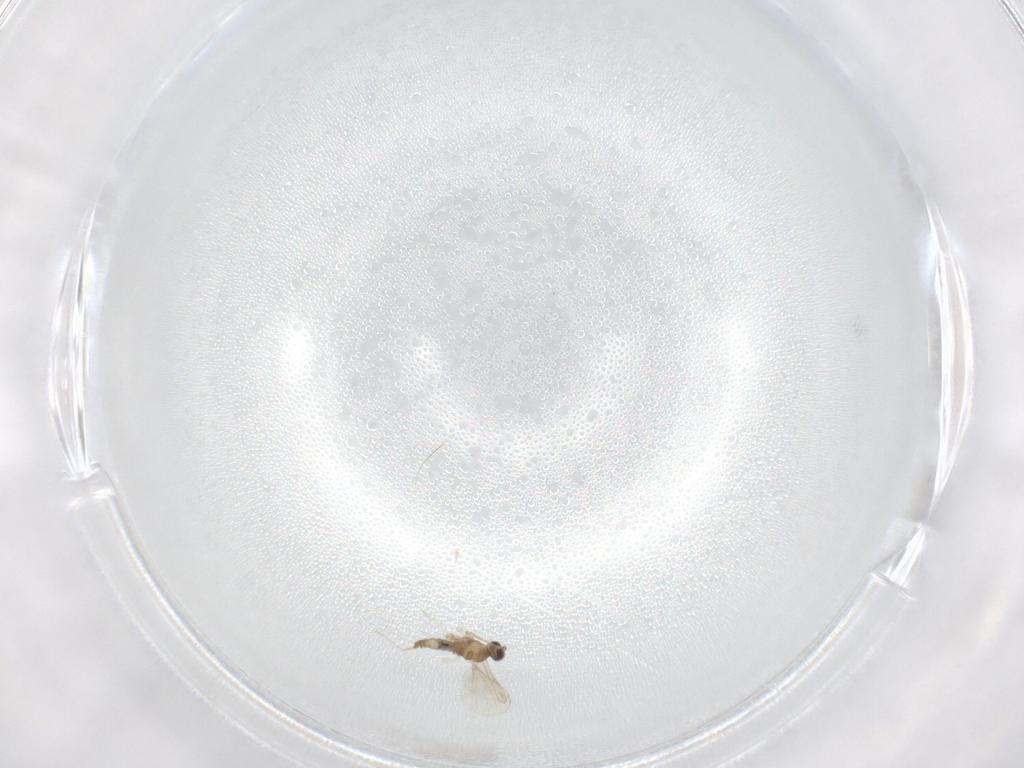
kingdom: Animalia
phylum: Arthropoda
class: Insecta
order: Diptera
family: Cecidomyiidae
